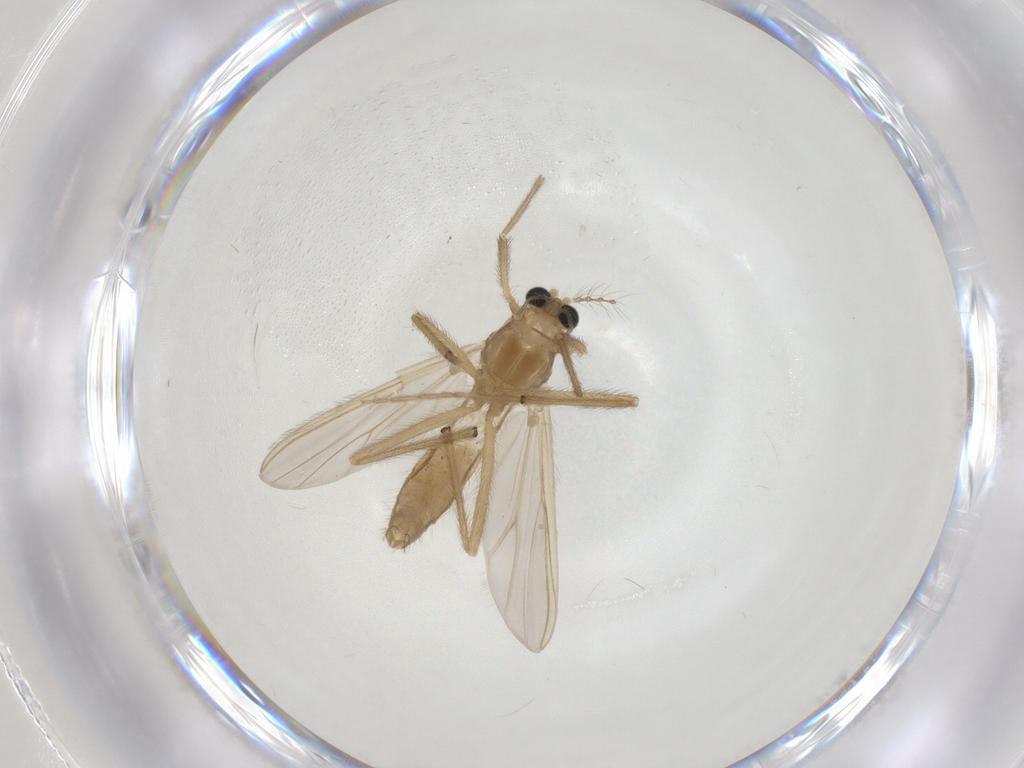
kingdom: Animalia
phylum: Arthropoda
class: Insecta
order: Diptera
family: Chironomidae
